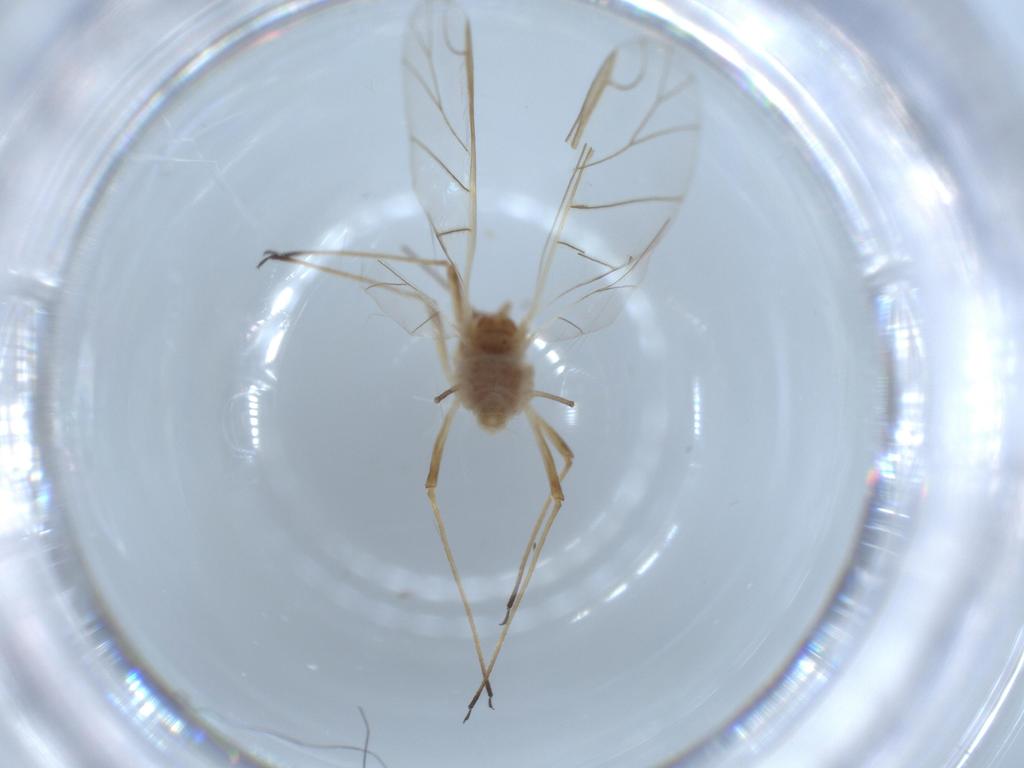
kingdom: Animalia
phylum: Arthropoda
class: Insecta
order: Hemiptera
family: Aphididae
